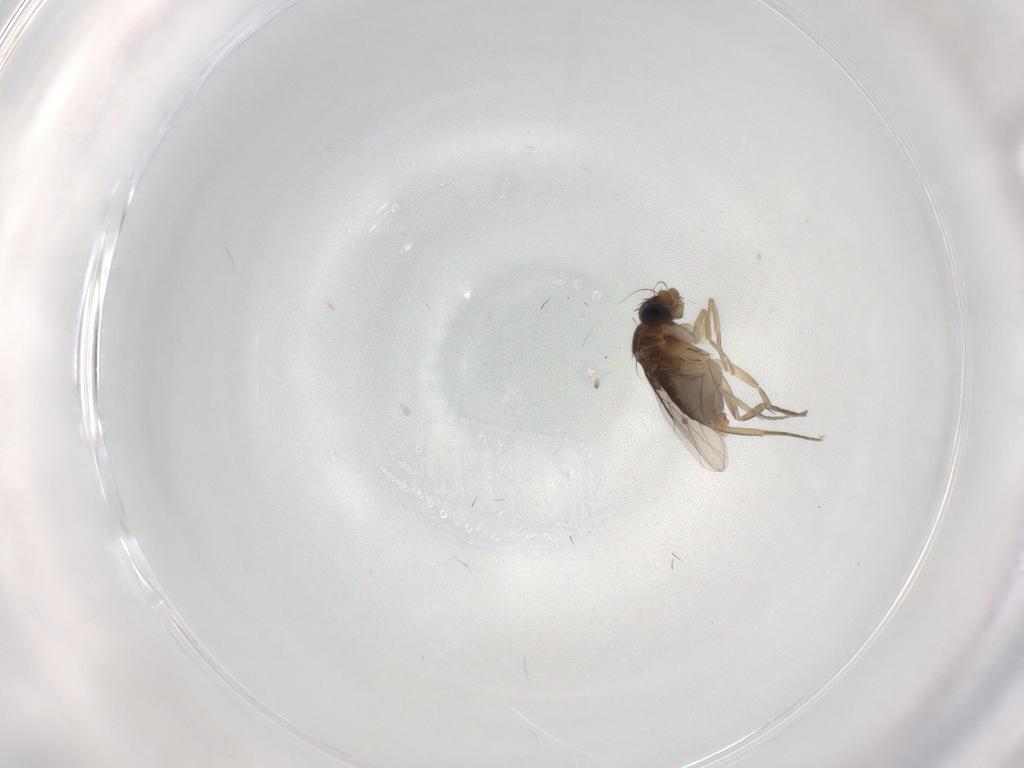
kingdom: Animalia
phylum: Arthropoda
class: Insecta
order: Diptera
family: Phoridae
